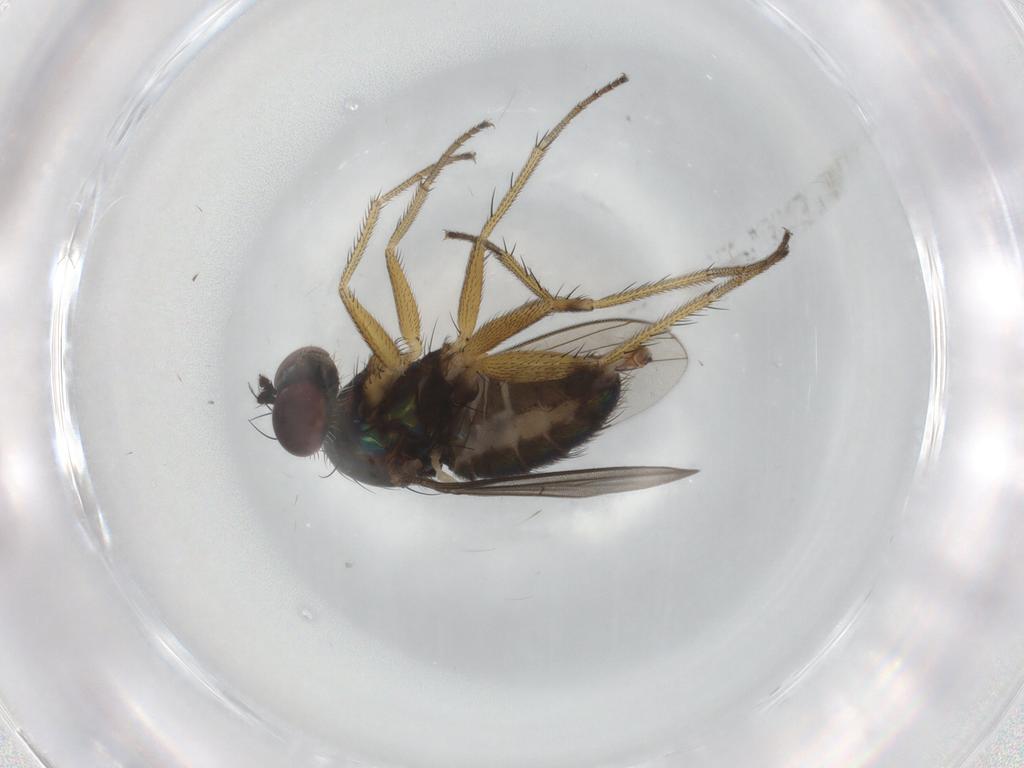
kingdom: Animalia
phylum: Arthropoda
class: Insecta
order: Diptera
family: Dolichopodidae
